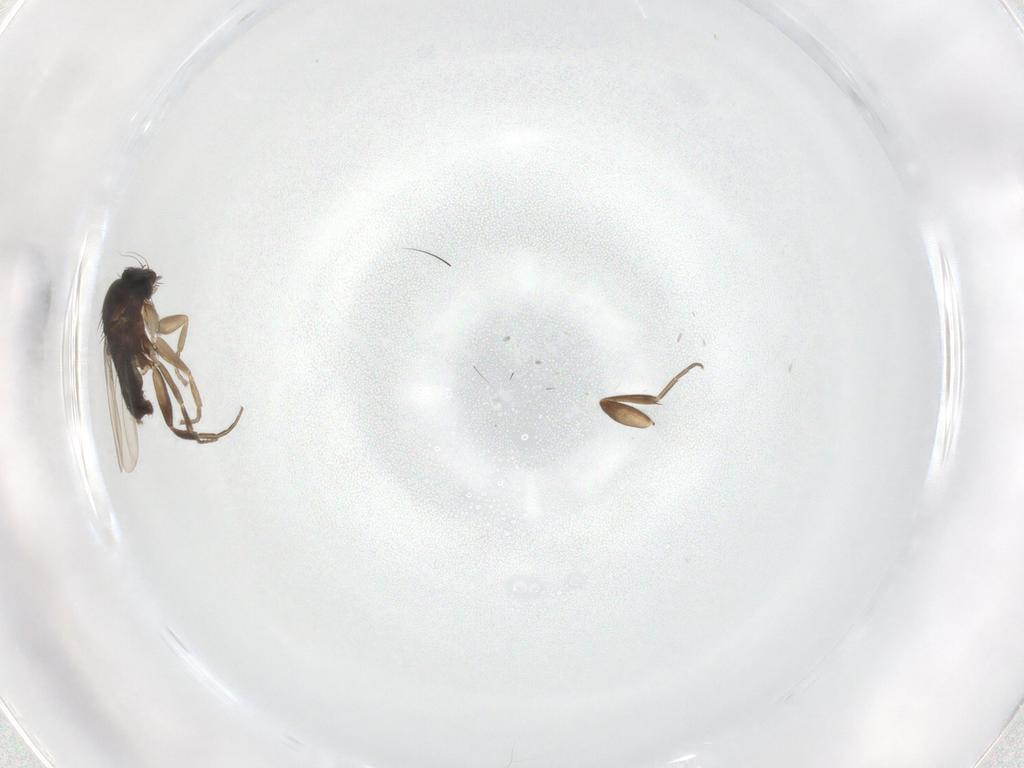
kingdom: Animalia
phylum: Arthropoda
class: Insecta
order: Diptera
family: Phoridae
